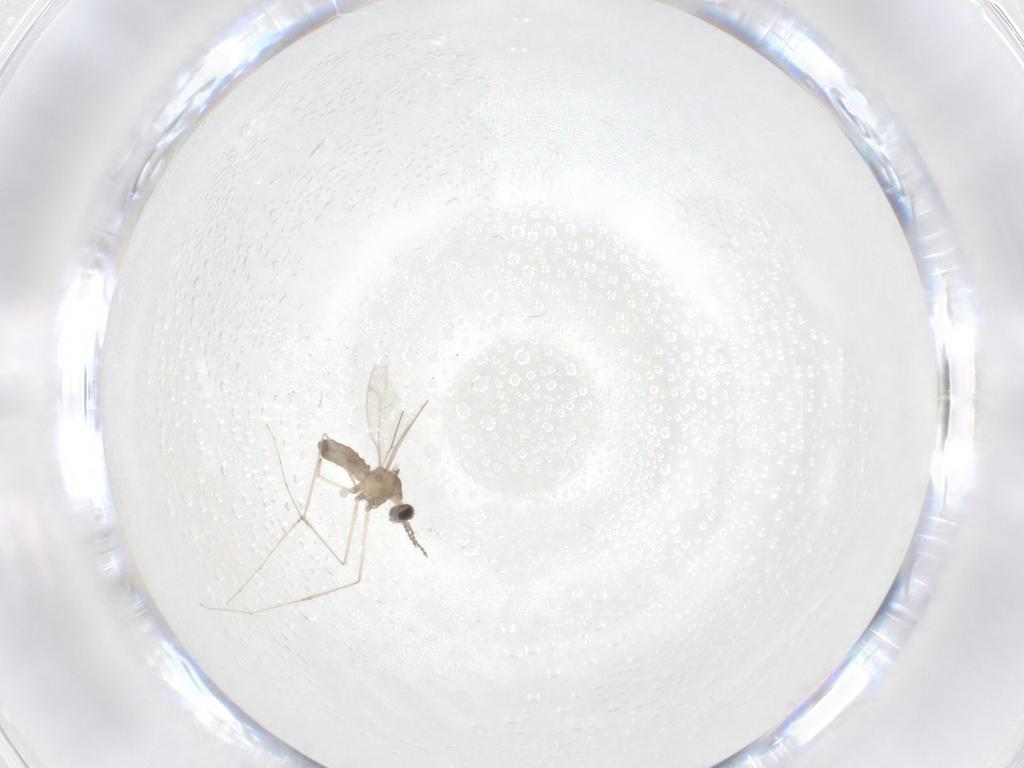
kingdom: Animalia
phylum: Arthropoda
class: Insecta
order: Diptera
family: Cecidomyiidae
